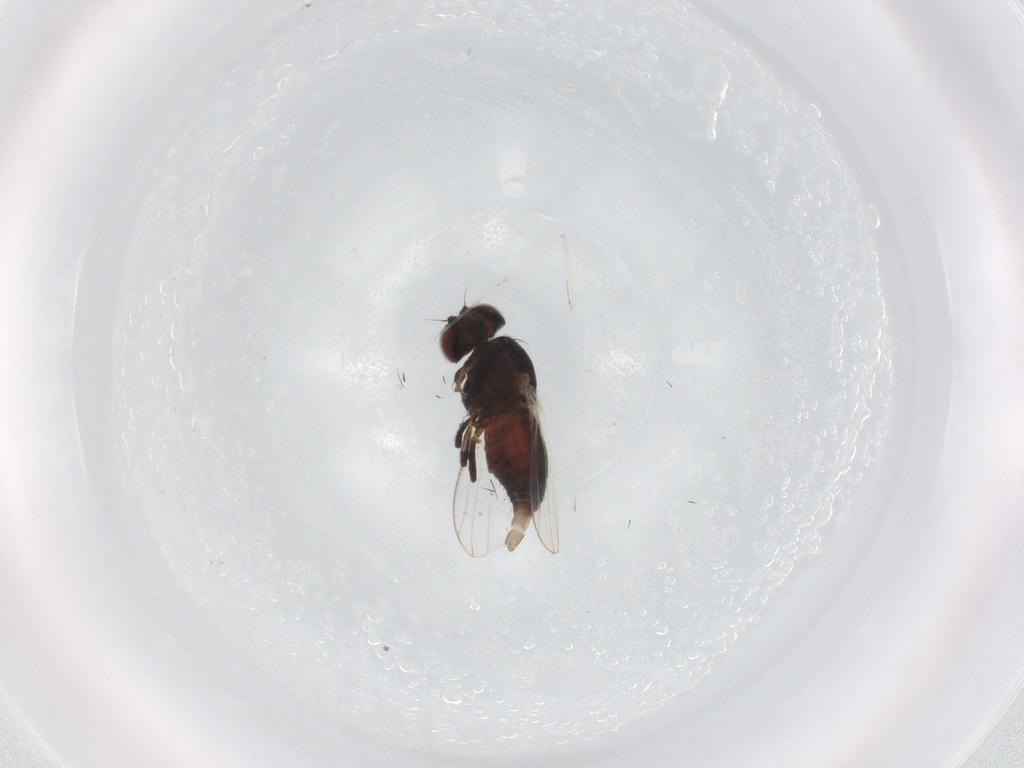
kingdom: Animalia
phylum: Arthropoda
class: Insecta
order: Diptera
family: Carnidae
